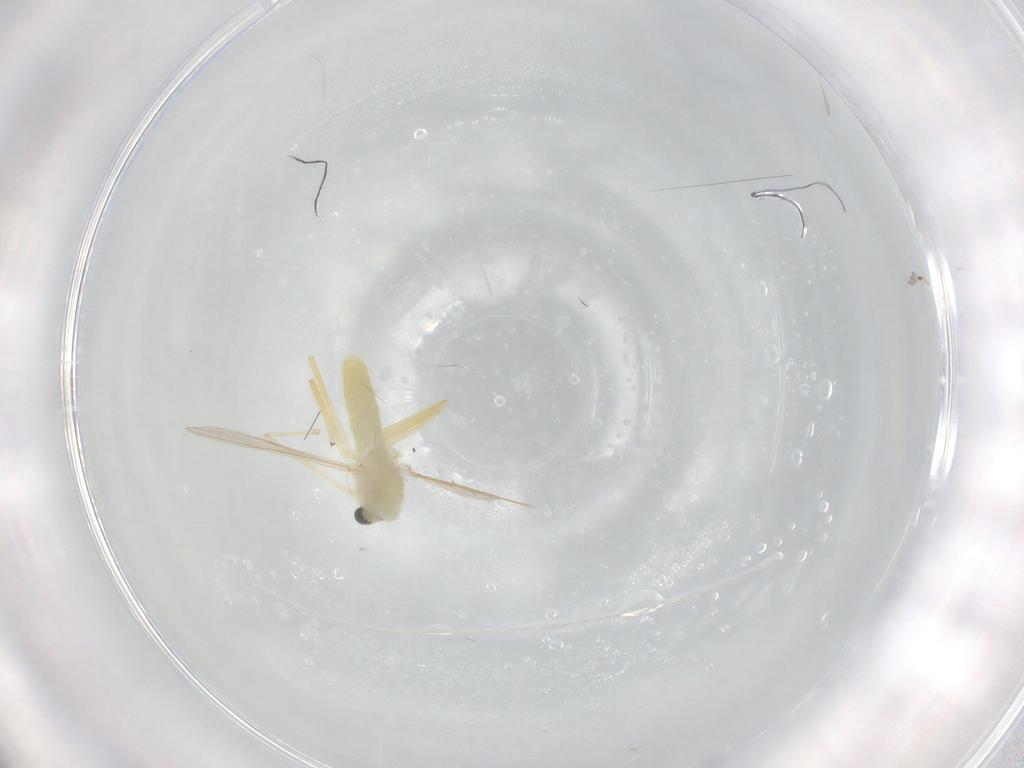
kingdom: Animalia
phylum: Arthropoda
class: Insecta
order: Diptera
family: Chironomidae
